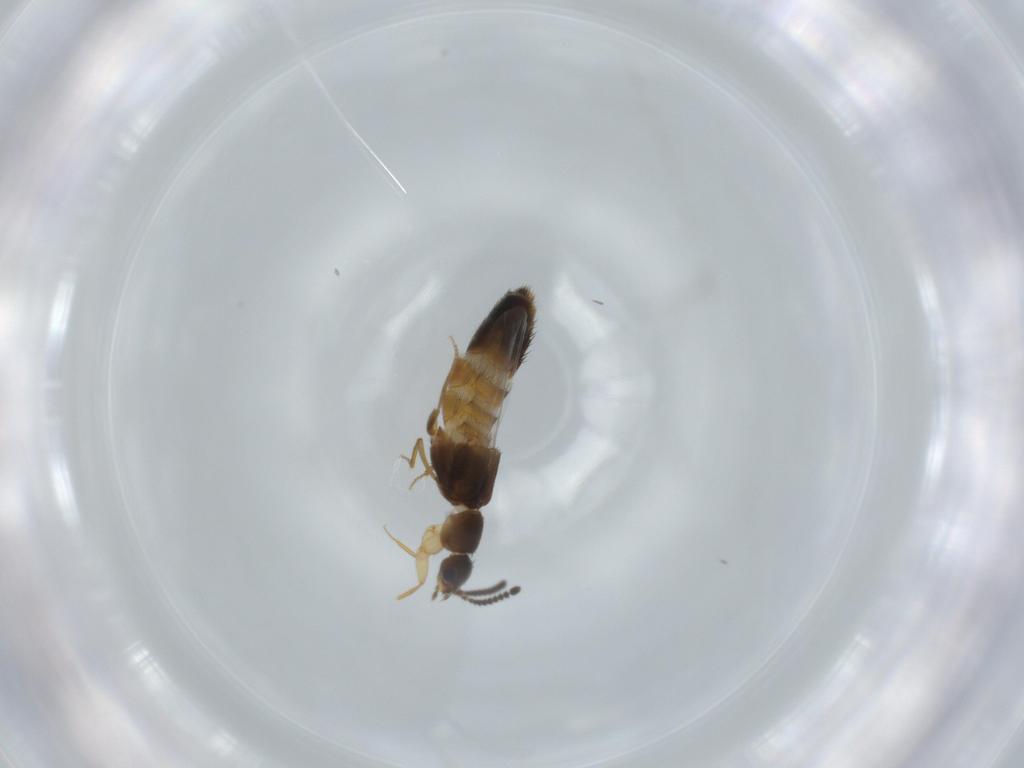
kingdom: Animalia
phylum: Arthropoda
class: Insecta
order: Coleoptera
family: Staphylinidae
